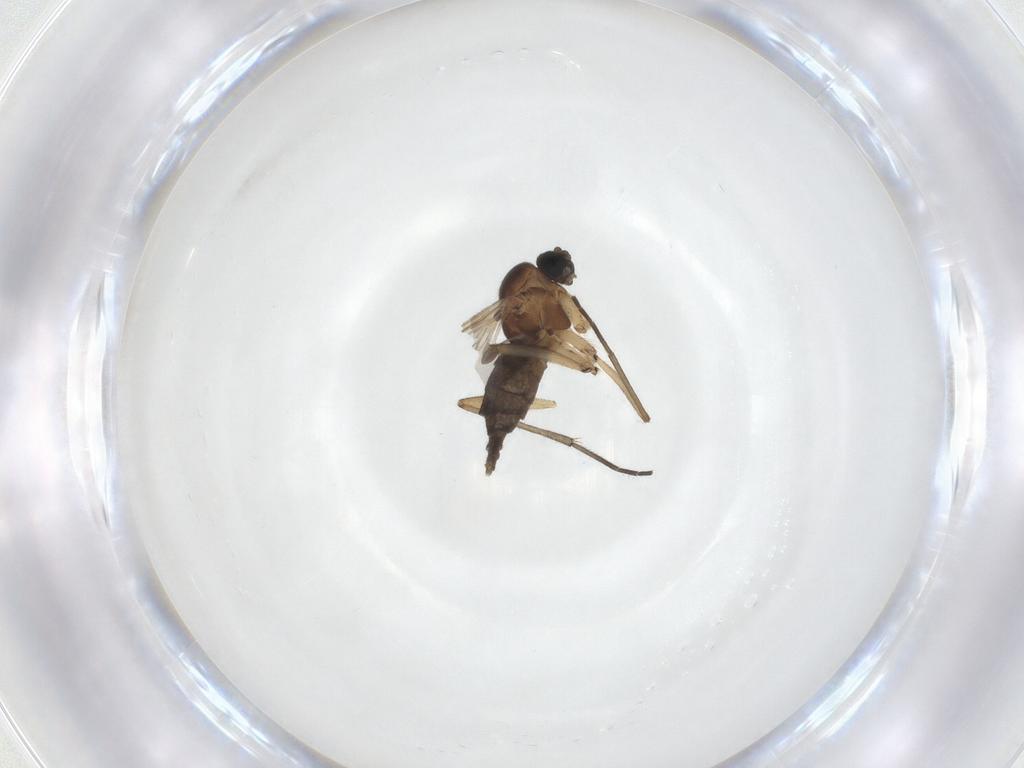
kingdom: Animalia
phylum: Arthropoda
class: Insecta
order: Diptera
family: Sciaridae
